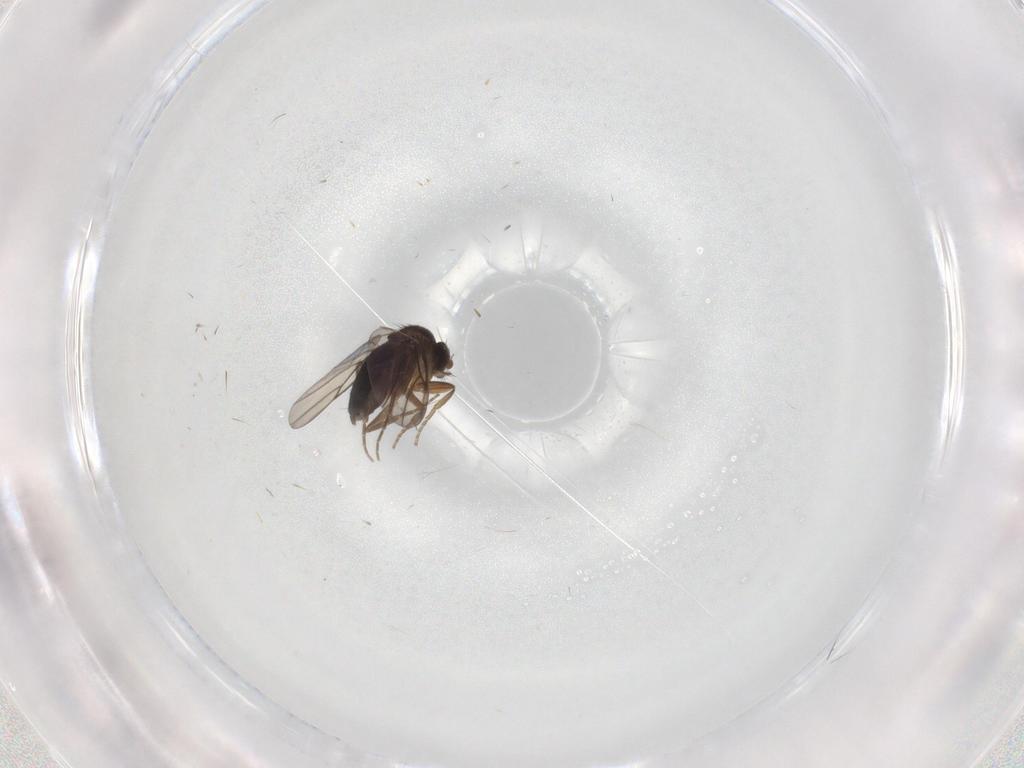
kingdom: Animalia
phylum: Arthropoda
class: Insecta
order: Diptera
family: Phoridae
